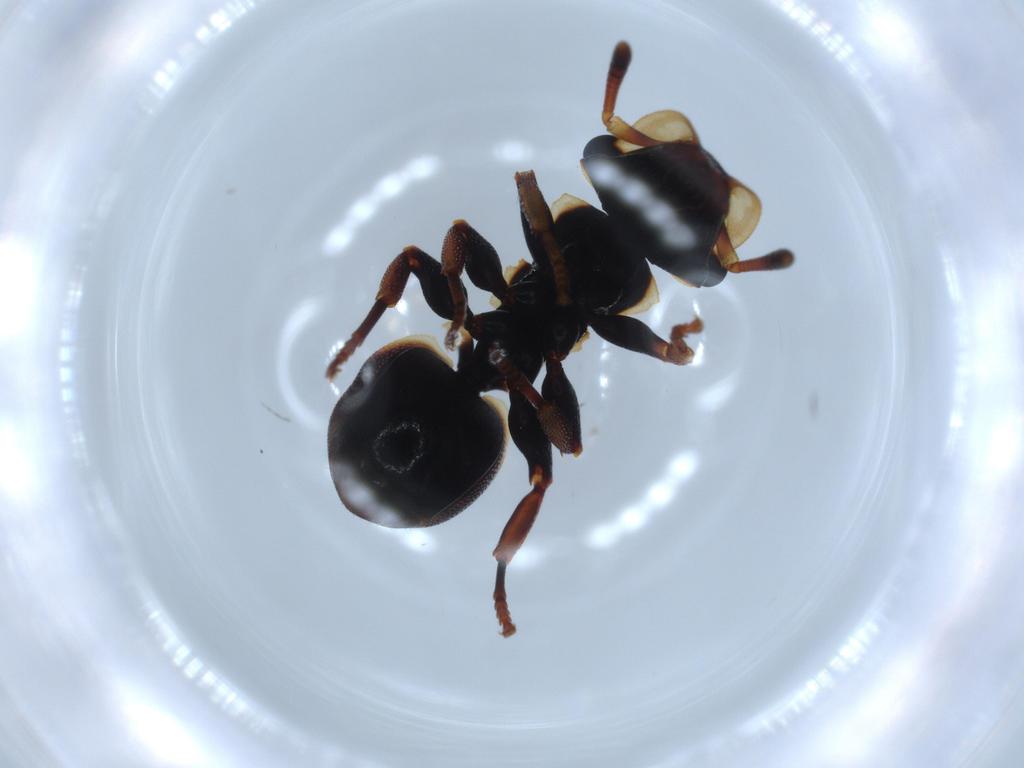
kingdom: Animalia
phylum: Arthropoda
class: Insecta
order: Hymenoptera
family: Formicidae
